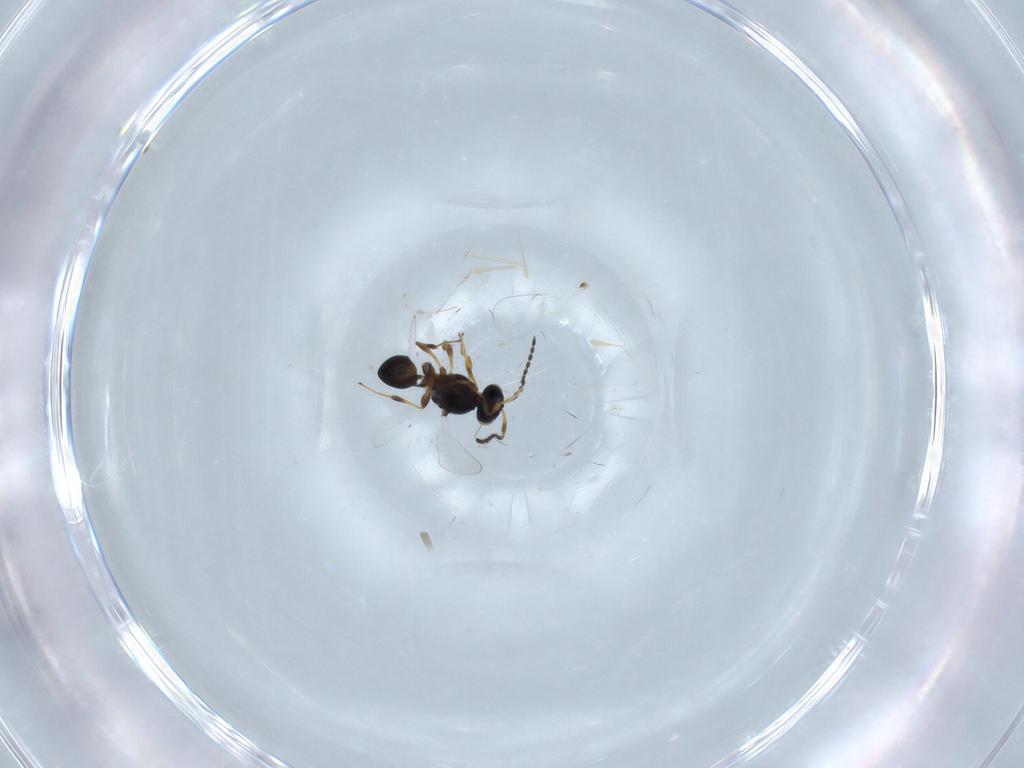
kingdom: Animalia
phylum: Arthropoda
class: Insecta
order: Hymenoptera
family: Platygastridae
